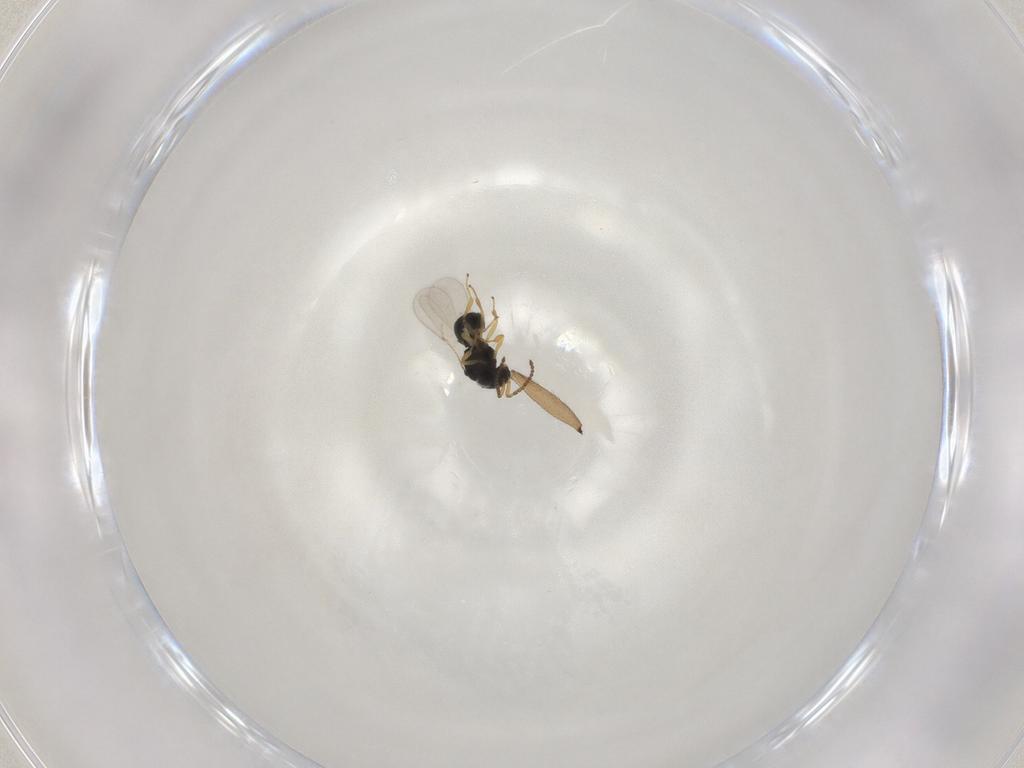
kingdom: Animalia
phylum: Arthropoda
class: Insecta
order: Hymenoptera
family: Scelionidae
